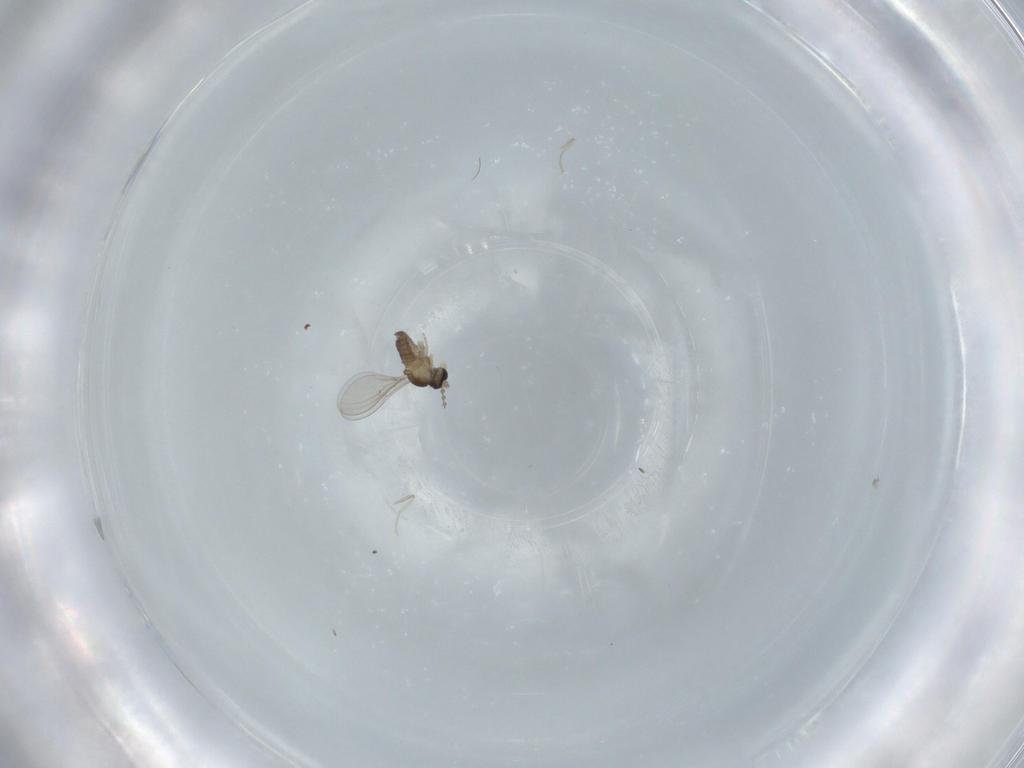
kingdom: Animalia
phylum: Arthropoda
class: Insecta
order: Diptera
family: Cecidomyiidae
